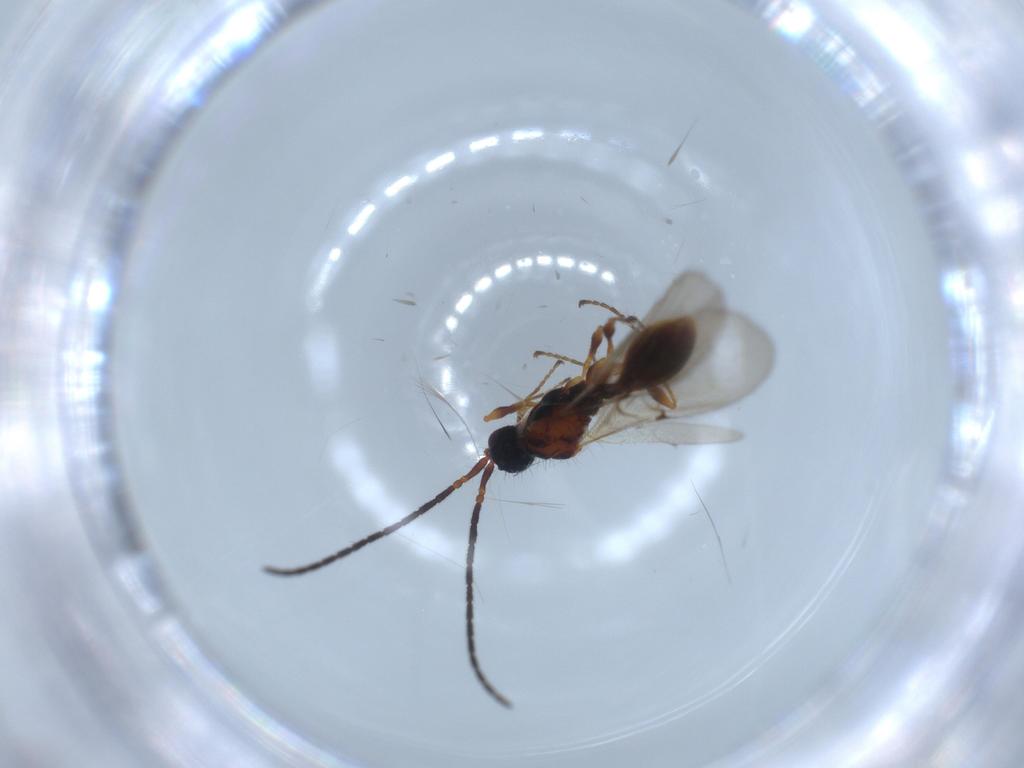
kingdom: Animalia
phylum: Arthropoda
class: Insecta
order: Hymenoptera
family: Diapriidae
